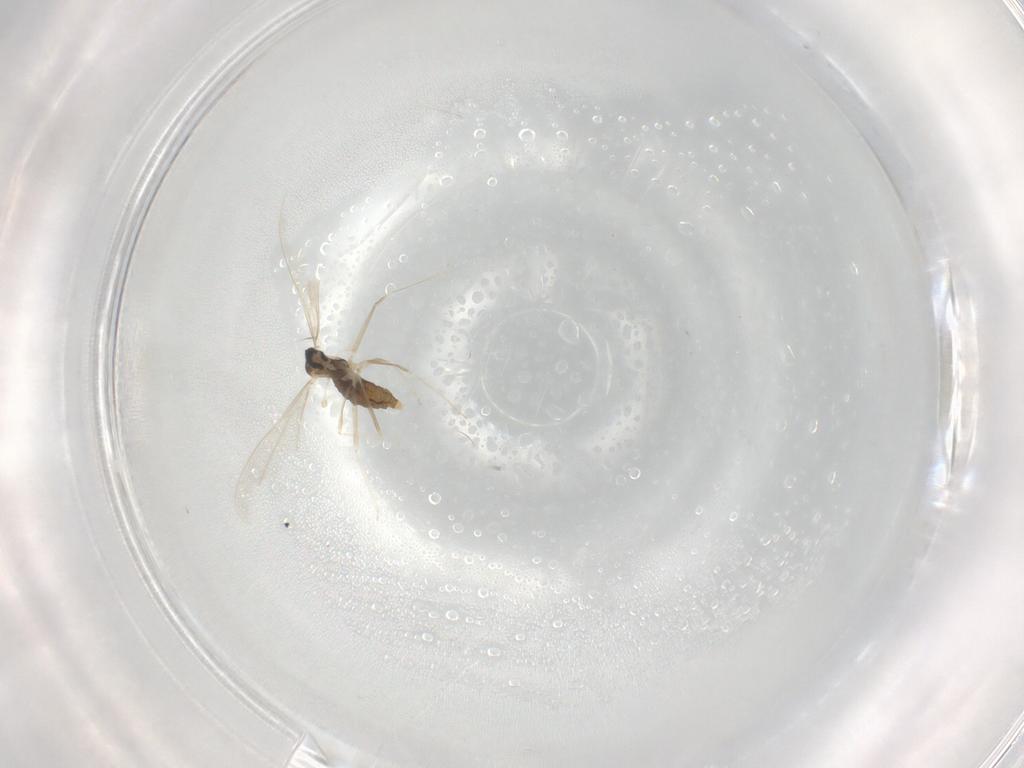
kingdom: Animalia
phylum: Arthropoda
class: Insecta
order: Diptera
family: Cecidomyiidae
